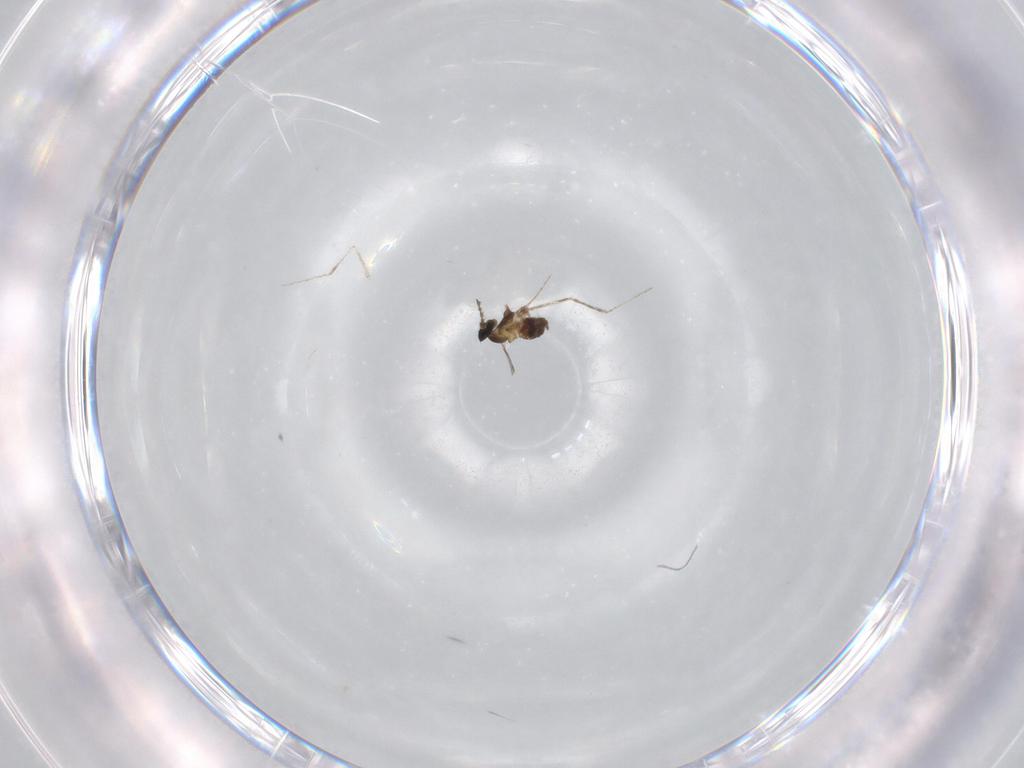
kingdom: Animalia
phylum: Arthropoda
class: Insecta
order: Diptera
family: Cecidomyiidae
